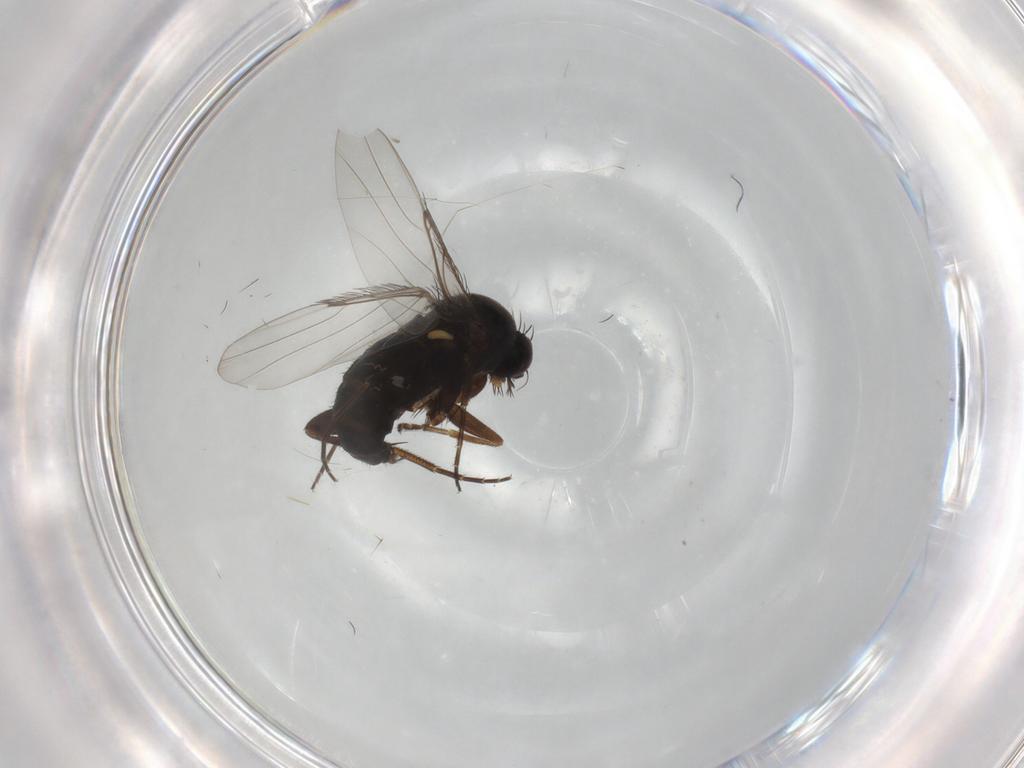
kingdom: Animalia
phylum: Arthropoda
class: Insecta
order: Diptera
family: Phoridae
